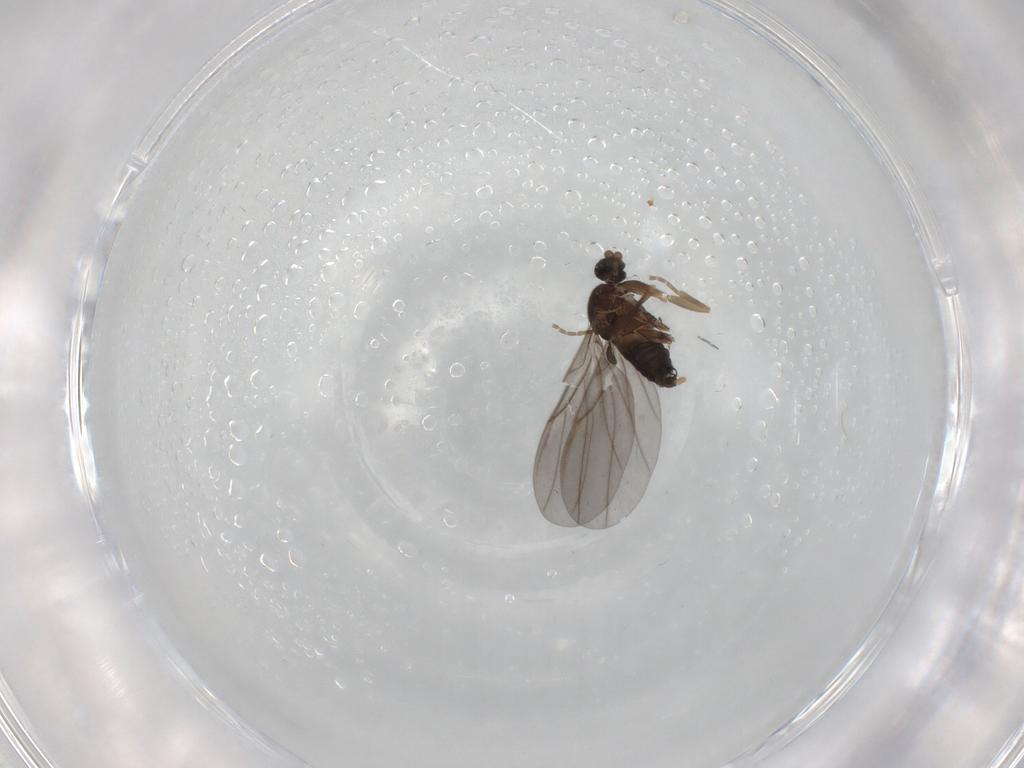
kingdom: Animalia
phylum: Arthropoda
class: Insecta
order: Diptera
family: Phoridae
